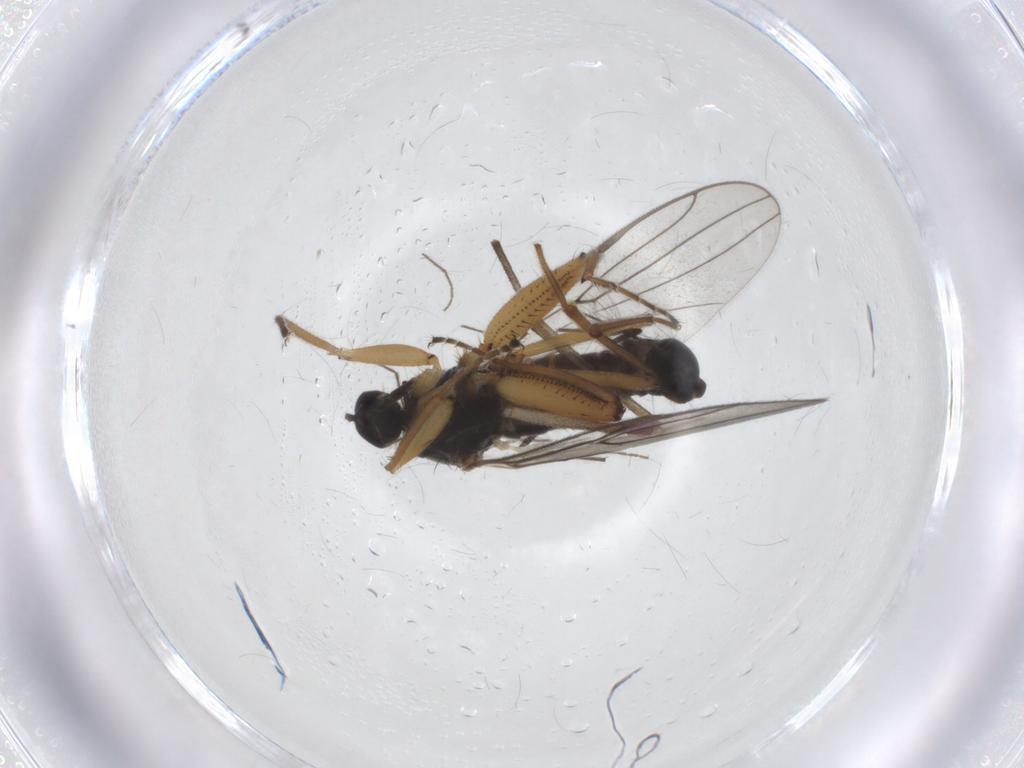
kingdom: Animalia
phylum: Arthropoda
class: Insecta
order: Diptera
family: Hybotidae
